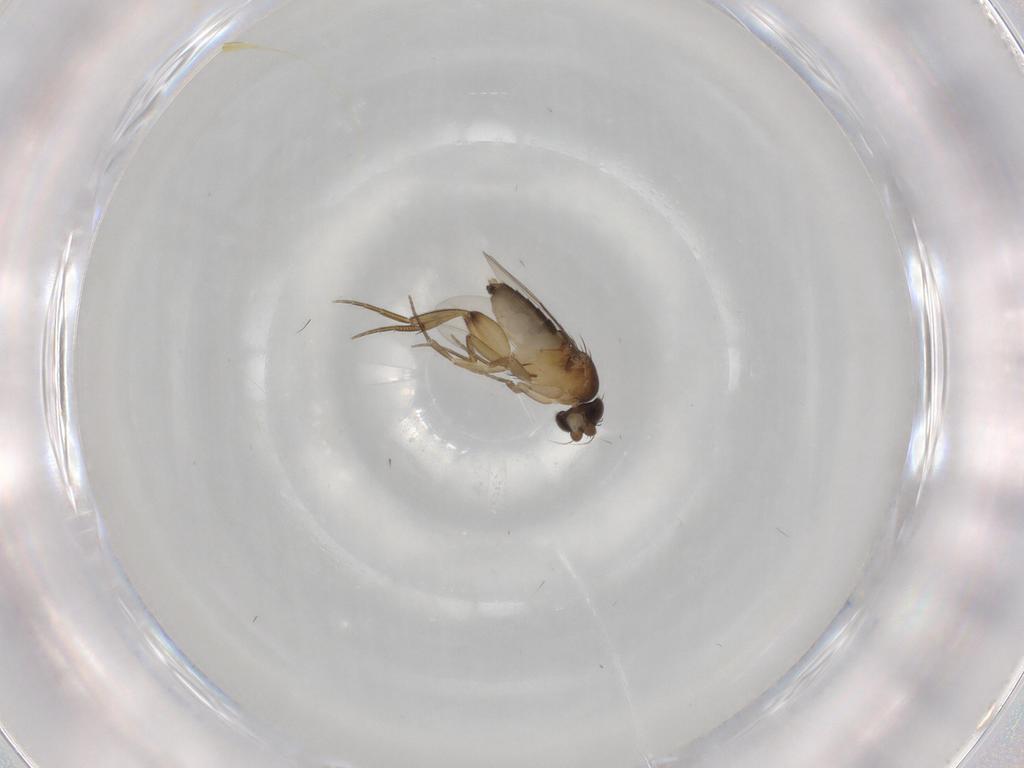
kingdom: Animalia
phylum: Arthropoda
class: Insecta
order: Diptera
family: Phoridae
